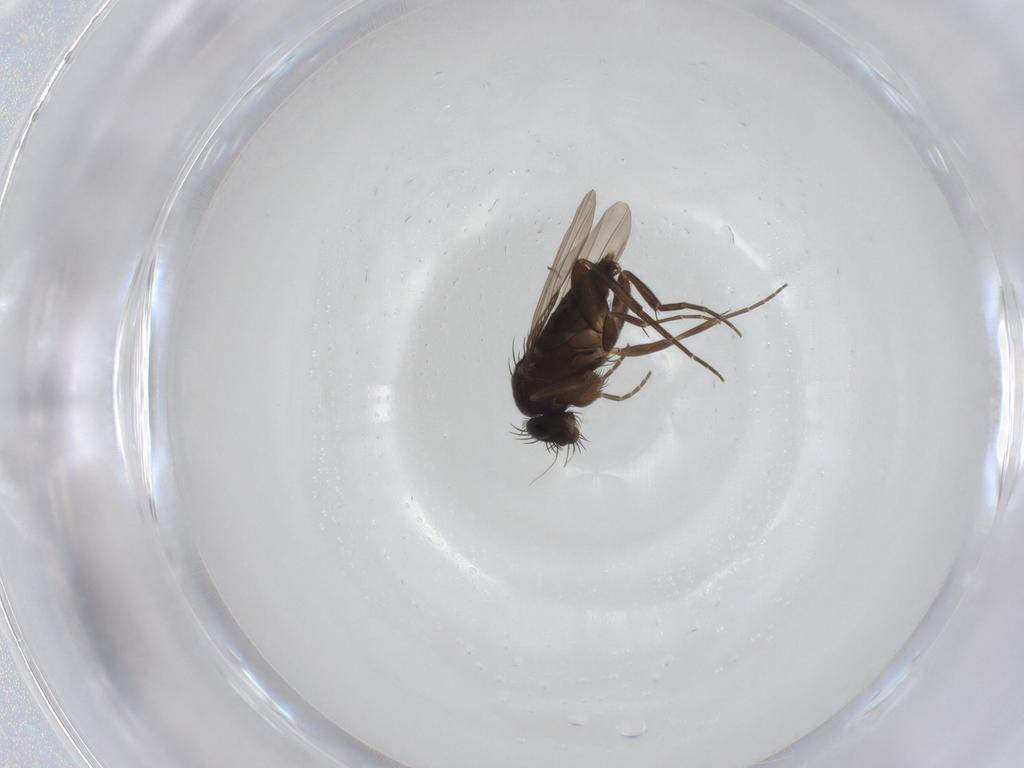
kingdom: Animalia
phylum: Arthropoda
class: Insecta
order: Diptera
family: Phoridae
